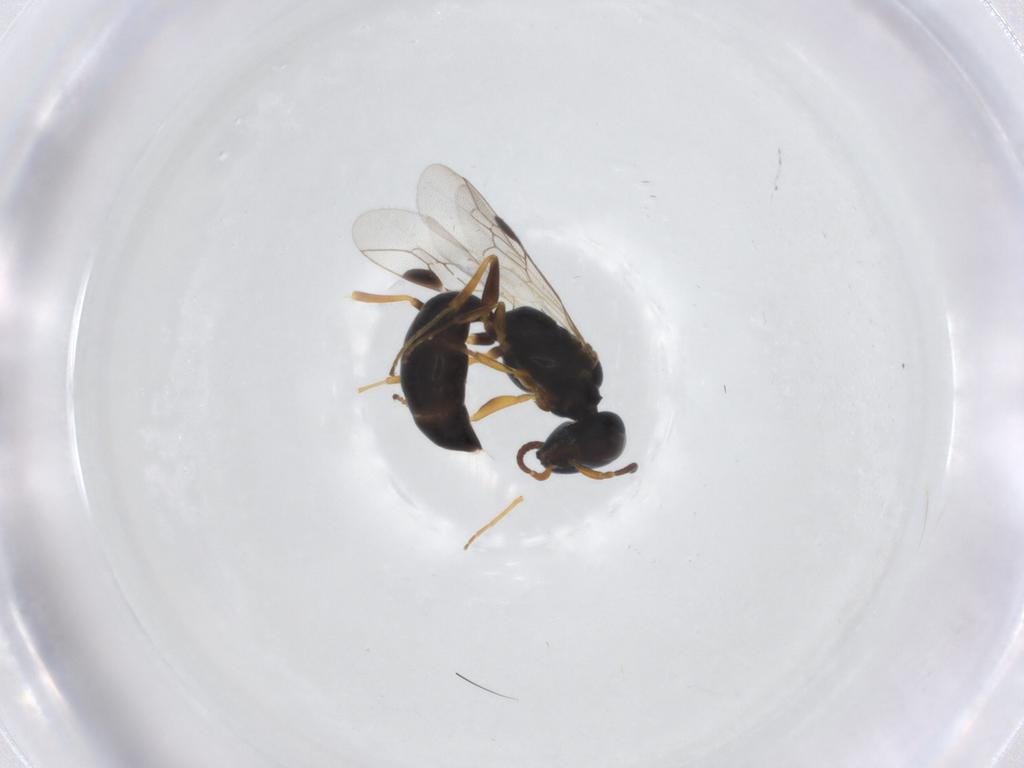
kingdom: Animalia
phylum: Arthropoda
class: Insecta
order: Hymenoptera
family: Pemphredonidae
